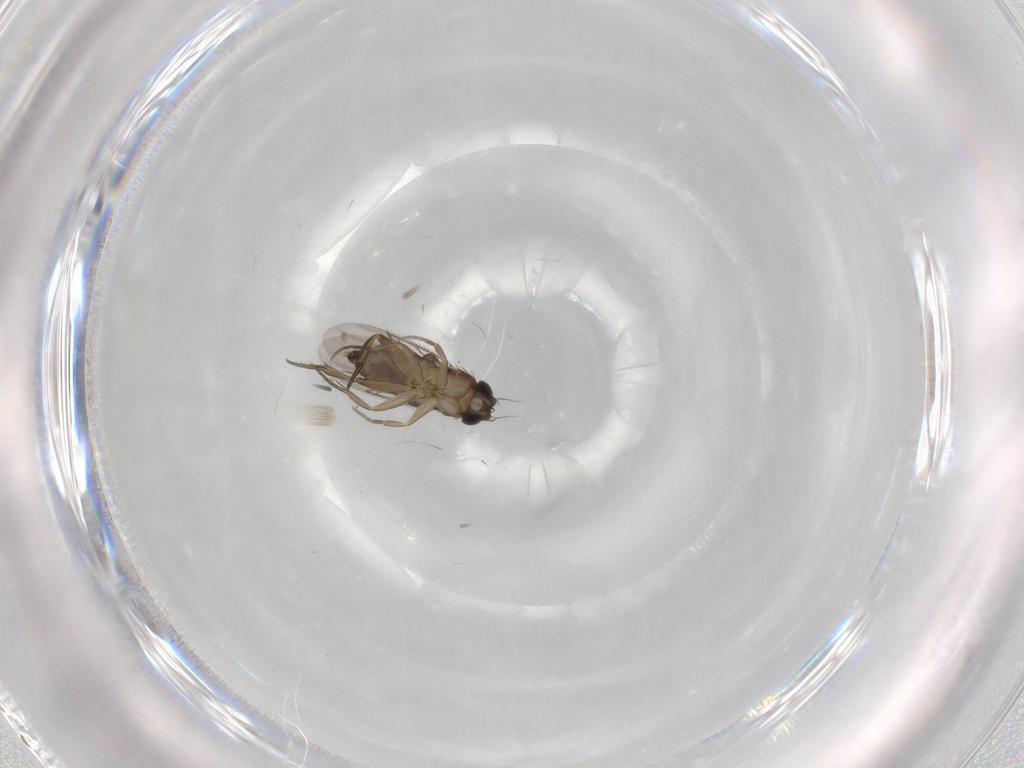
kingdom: Animalia
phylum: Arthropoda
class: Insecta
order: Diptera
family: Phoridae
